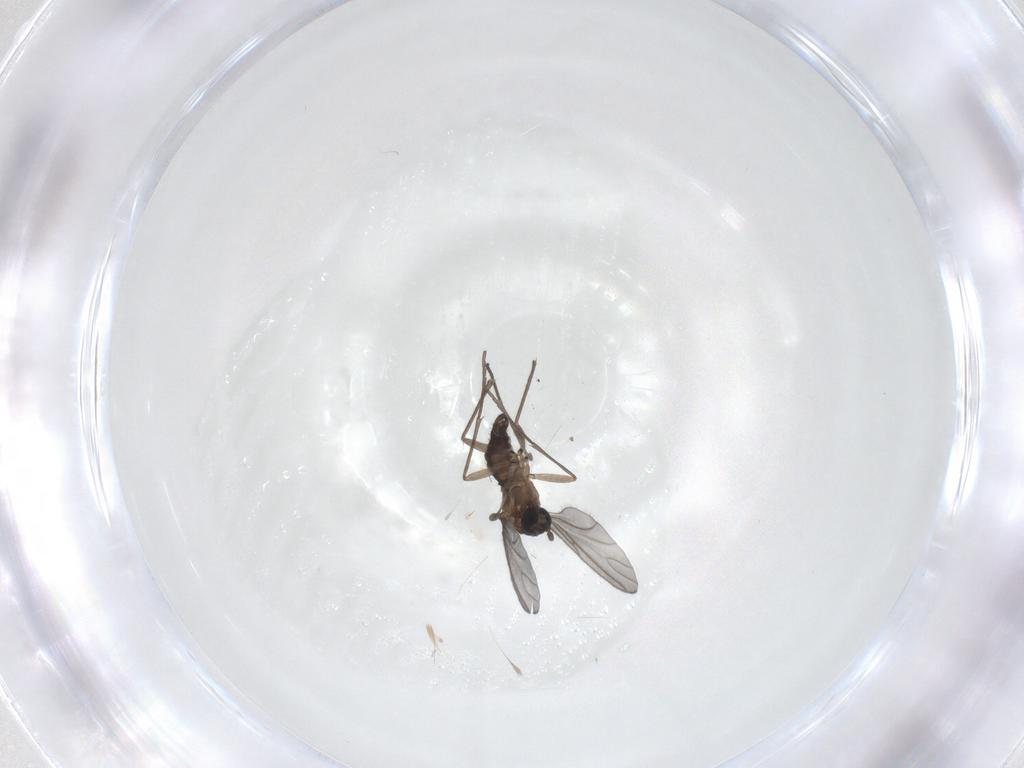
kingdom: Animalia
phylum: Arthropoda
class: Insecta
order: Diptera
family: Sciaridae
